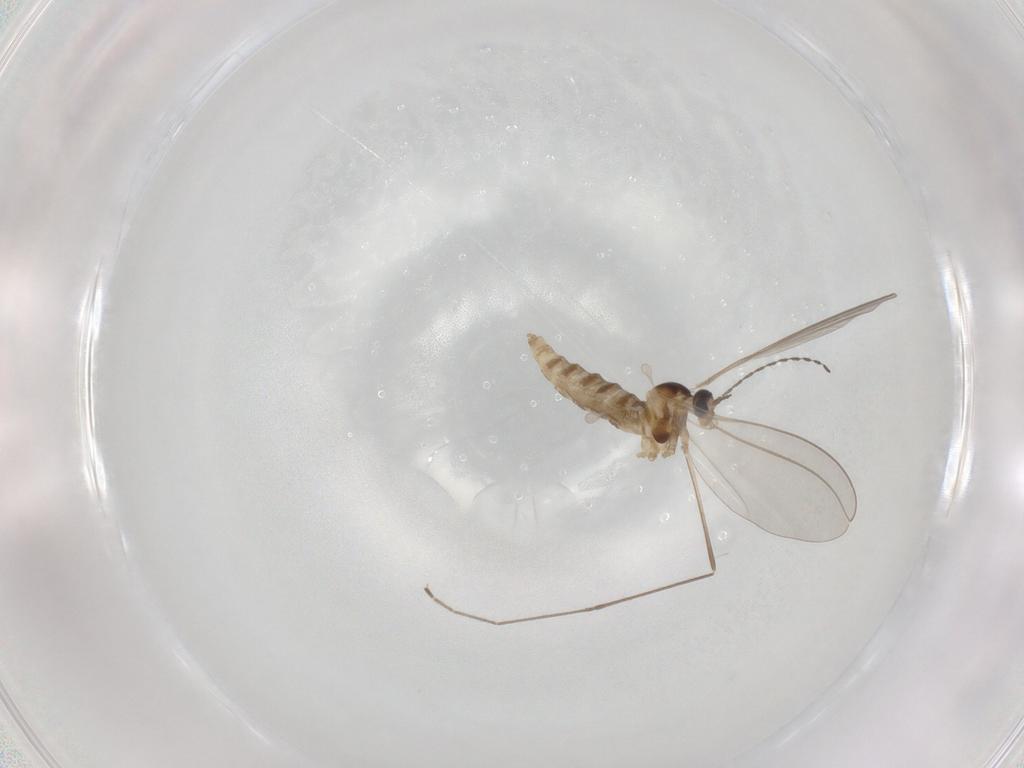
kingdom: Animalia
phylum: Arthropoda
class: Insecta
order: Diptera
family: Cecidomyiidae
